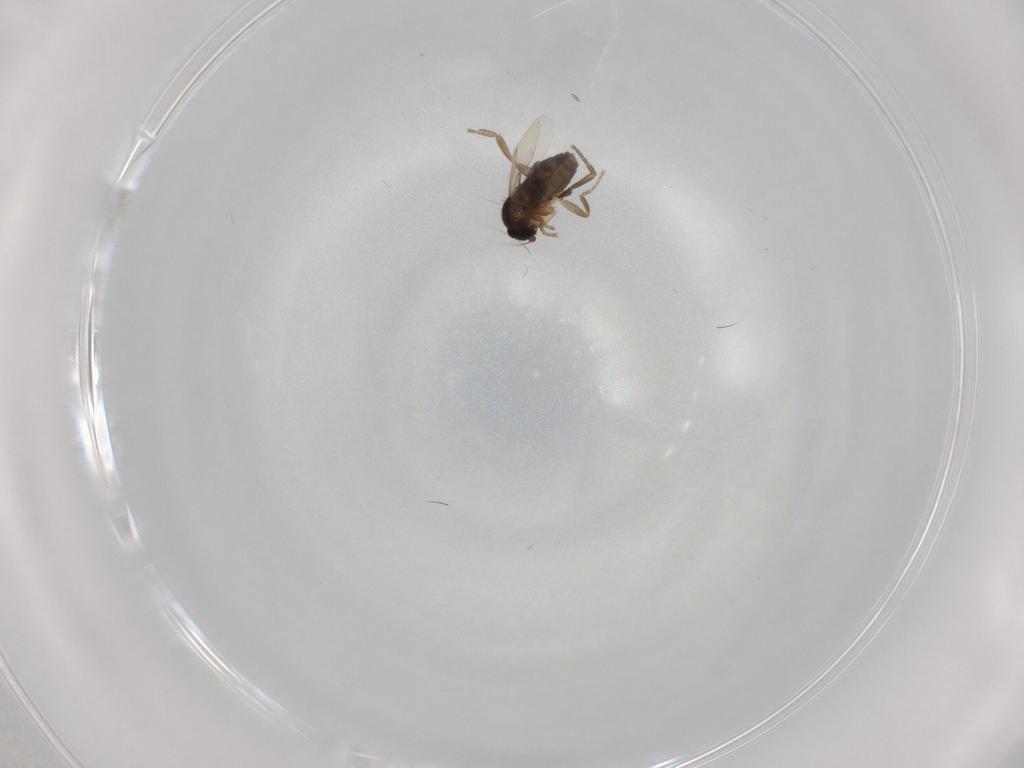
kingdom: Animalia
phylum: Arthropoda
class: Insecta
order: Diptera
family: Phoridae
